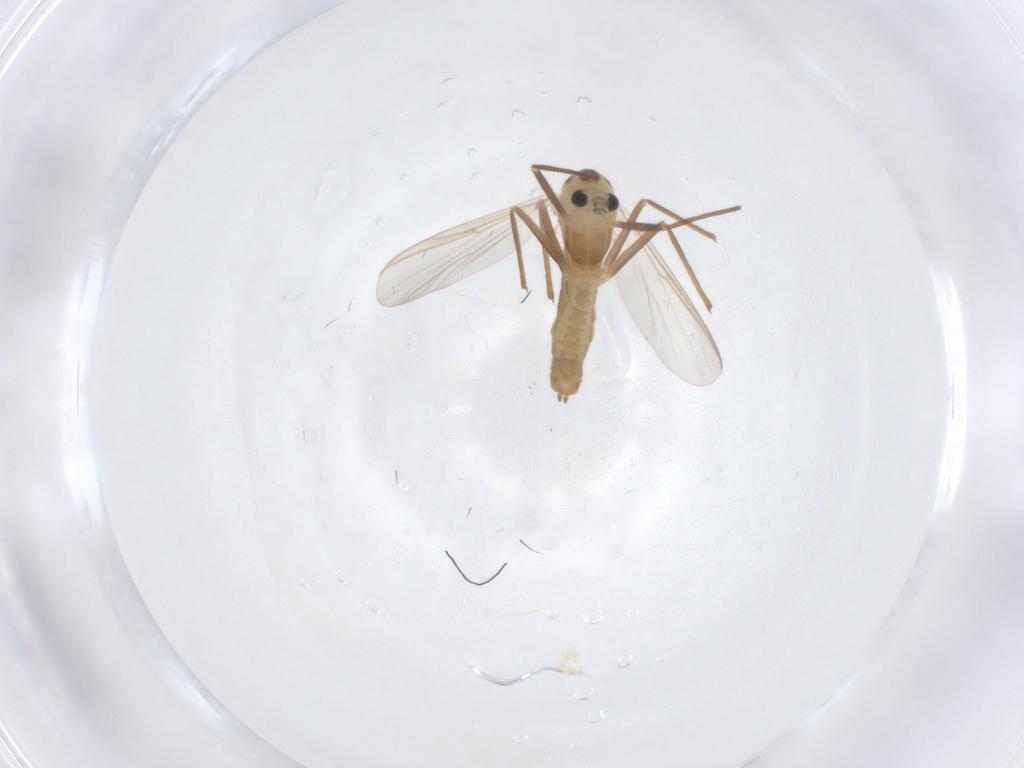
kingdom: Animalia
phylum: Arthropoda
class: Insecta
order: Diptera
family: Chironomidae
